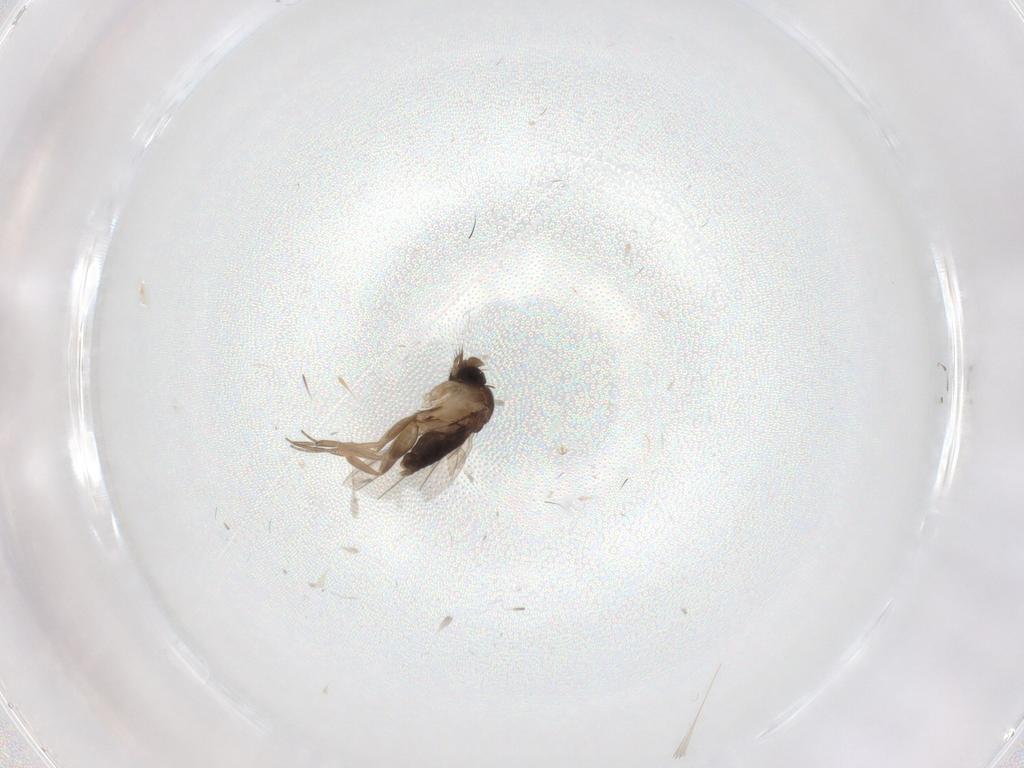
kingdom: Animalia
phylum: Arthropoda
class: Insecta
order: Diptera
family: Chironomidae
